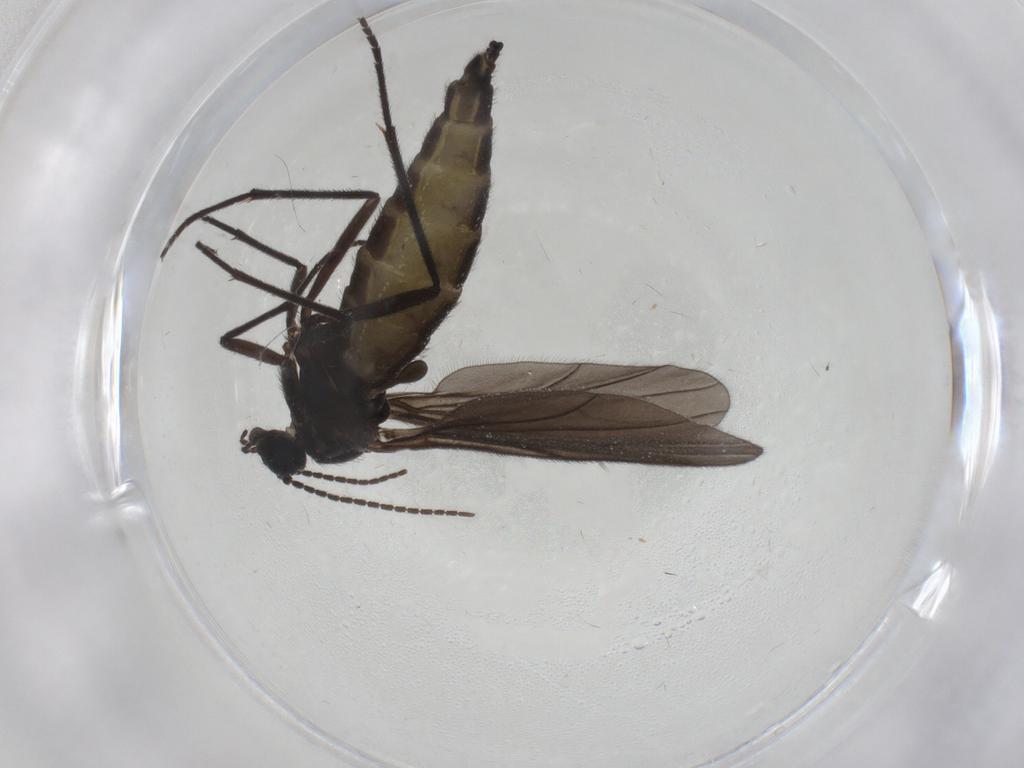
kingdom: Animalia
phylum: Arthropoda
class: Insecta
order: Diptera
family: Sciaridae
